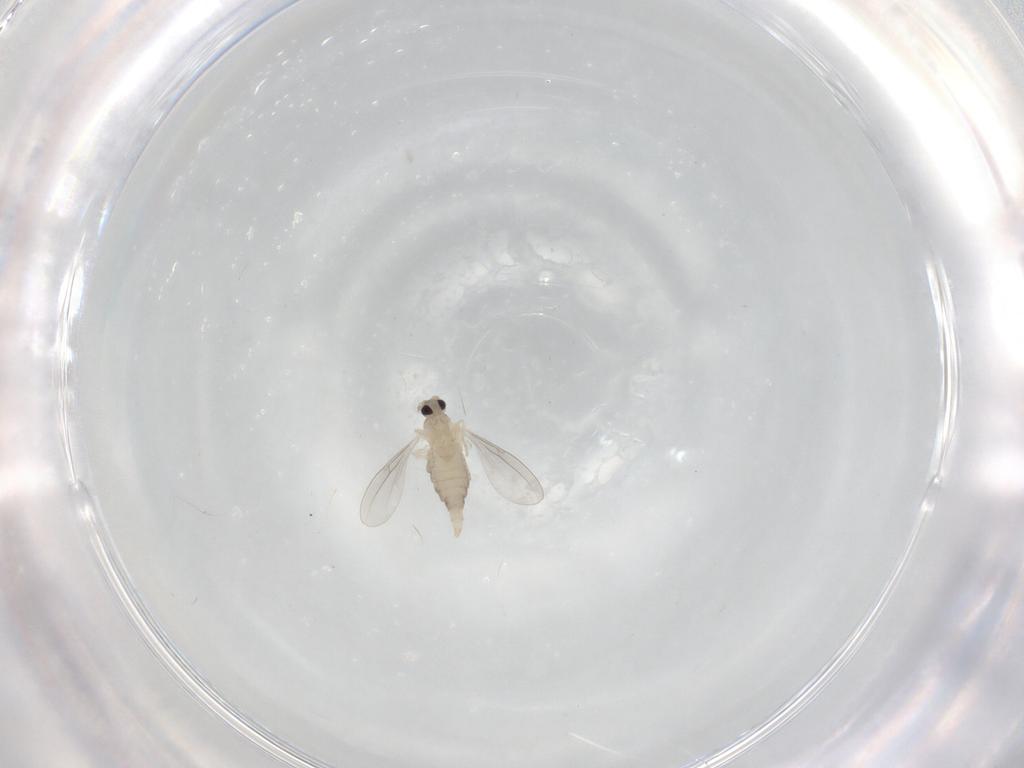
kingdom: Animalia
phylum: Arthropoda
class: Insecta
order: Diptera
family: Cecidomyiidae
